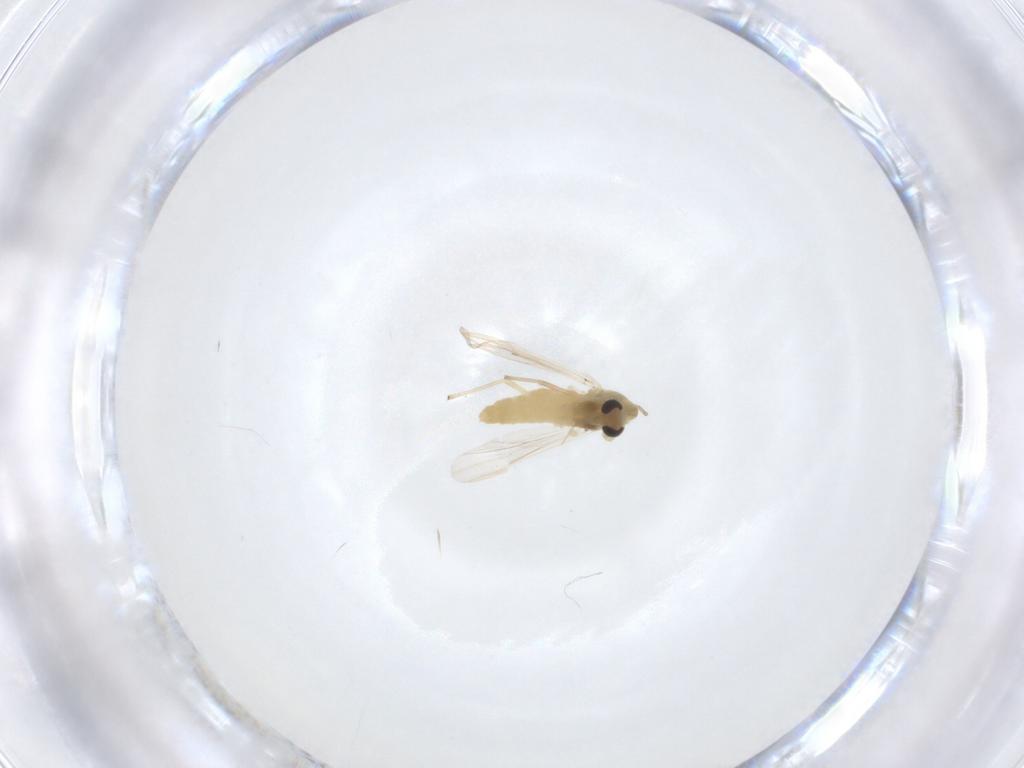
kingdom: Animalia
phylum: Arthropoda
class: Insecta
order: Diptera
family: Chironomidae
